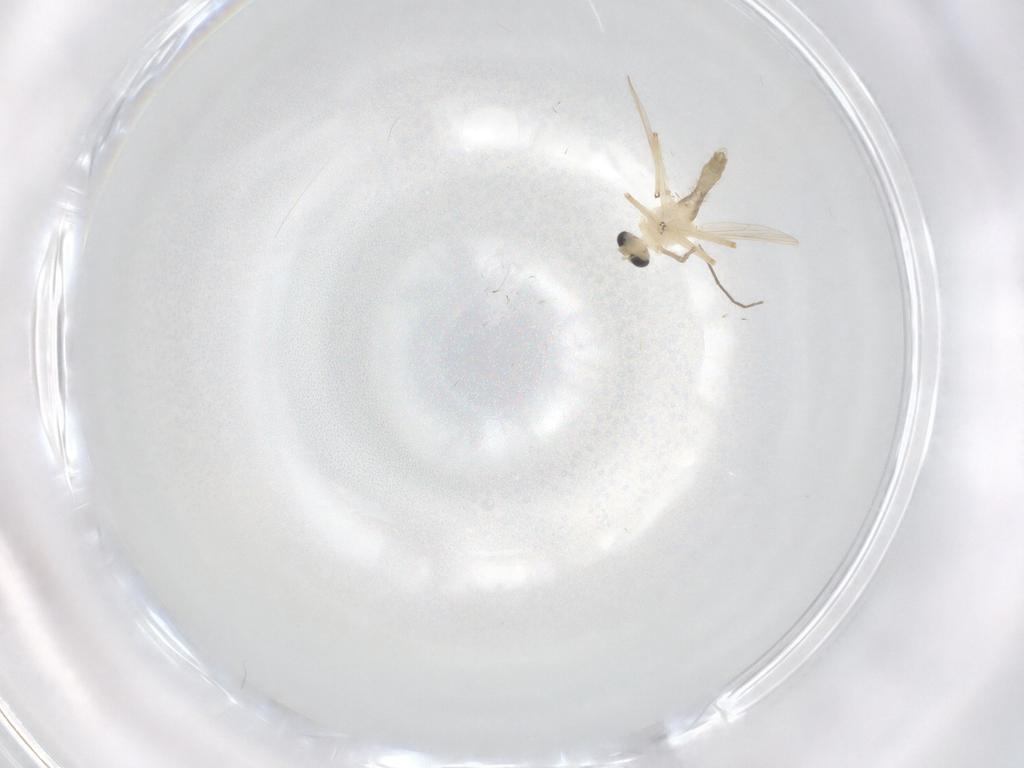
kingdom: Animalia
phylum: Arthropoda
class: Insecta
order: Diptera
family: Chironomidae
